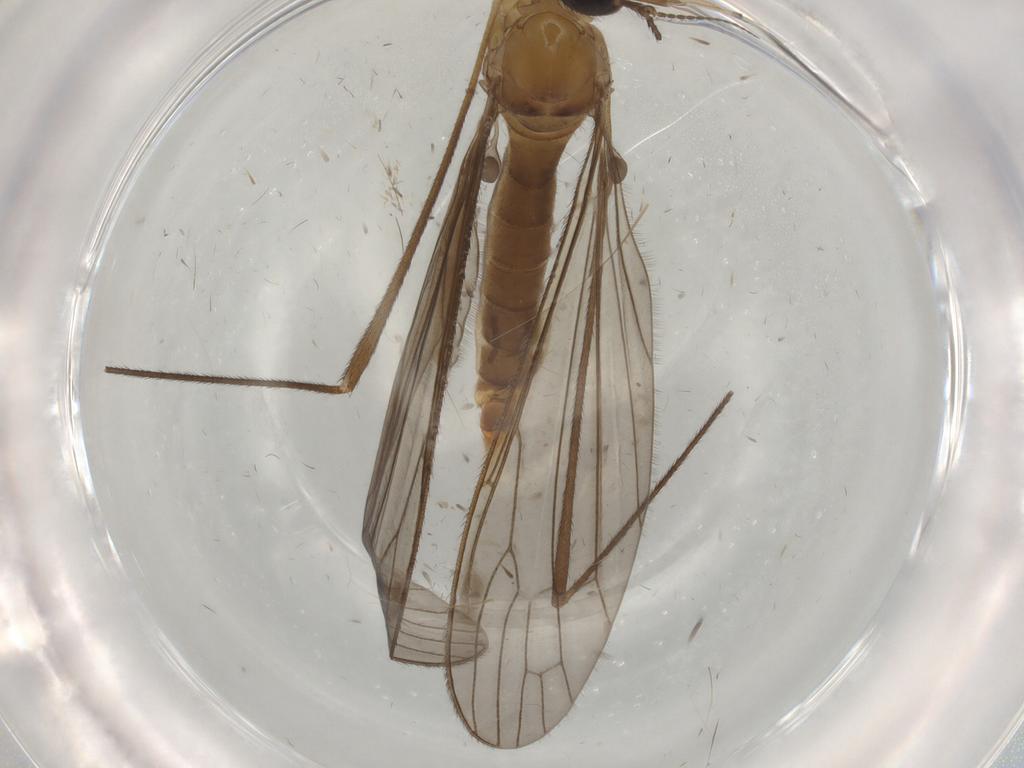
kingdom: Animalia
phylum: Arthropoda
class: Insecta
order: Diptera
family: Limoniidae
